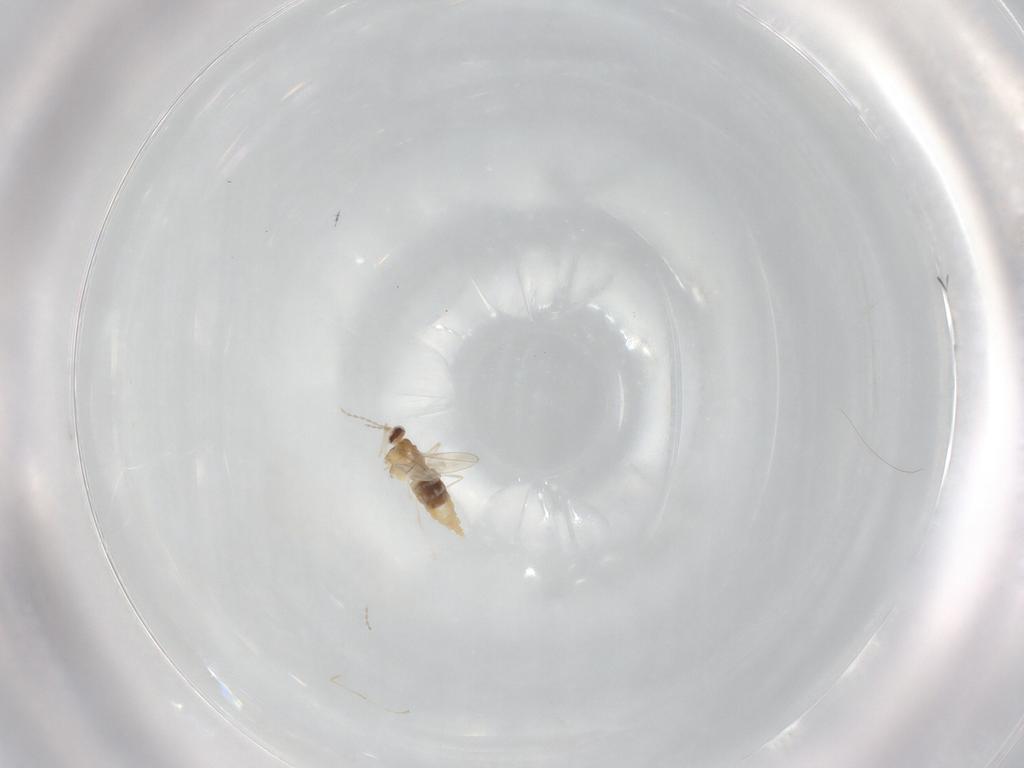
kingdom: Animalia
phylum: Arthropoda
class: Insecta
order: Diptera
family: Cecidomyiidae
